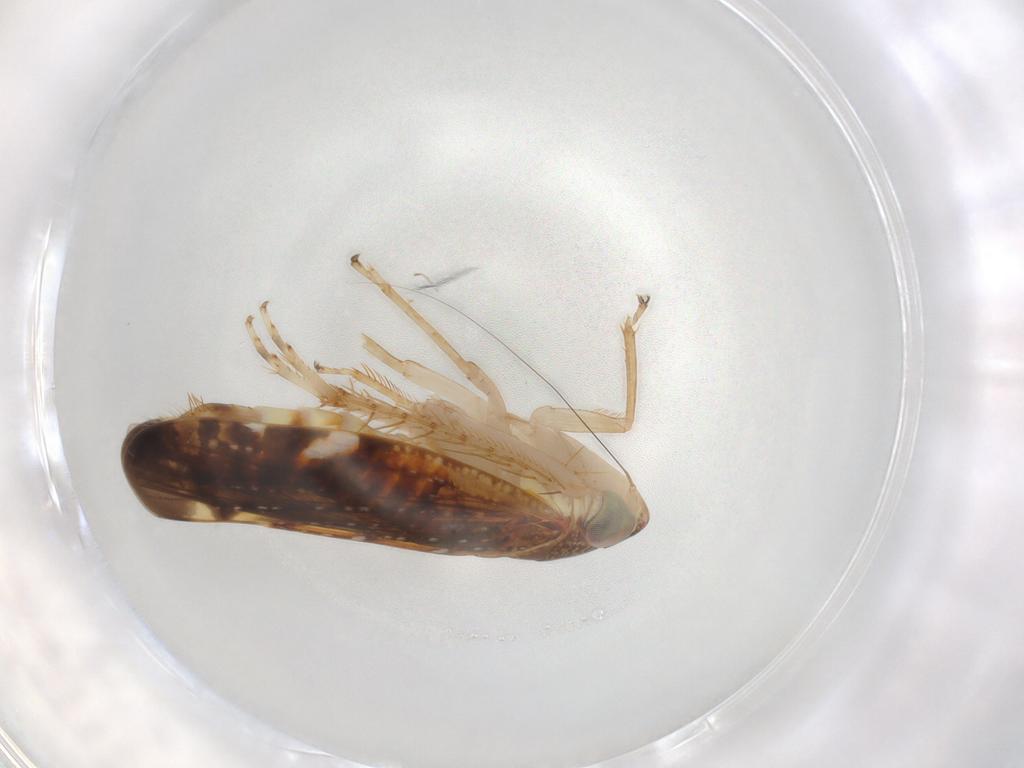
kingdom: Animalia
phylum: Arthropoda
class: Insecta
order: Hemiptera
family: Cicadellidae
